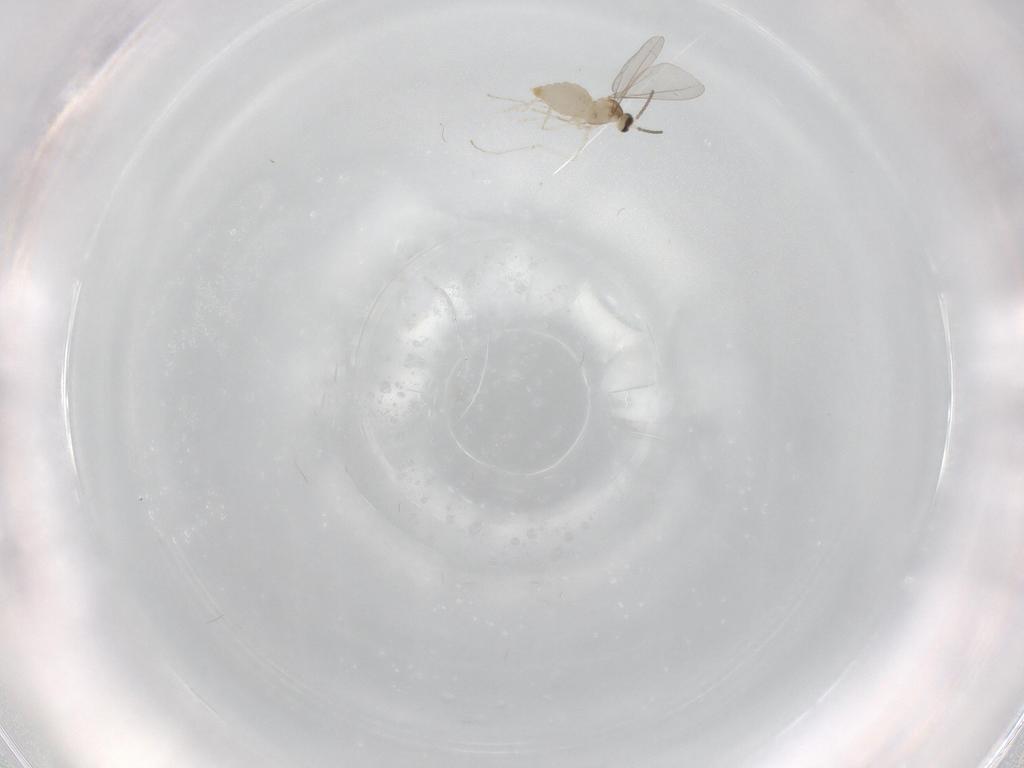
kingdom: Animalia
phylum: Arthropoda
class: Insecta
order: Diptera
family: Cecidomyiidae
